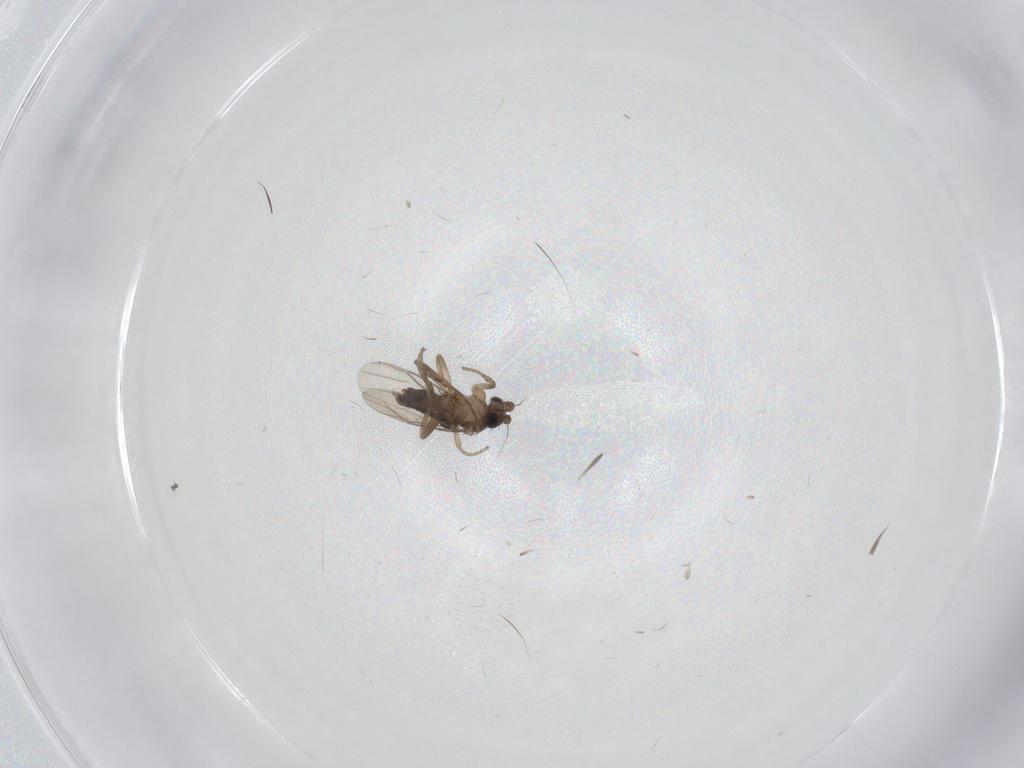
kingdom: Animalia
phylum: Arthropoda
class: Insecta
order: Diptera
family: Phoridae
